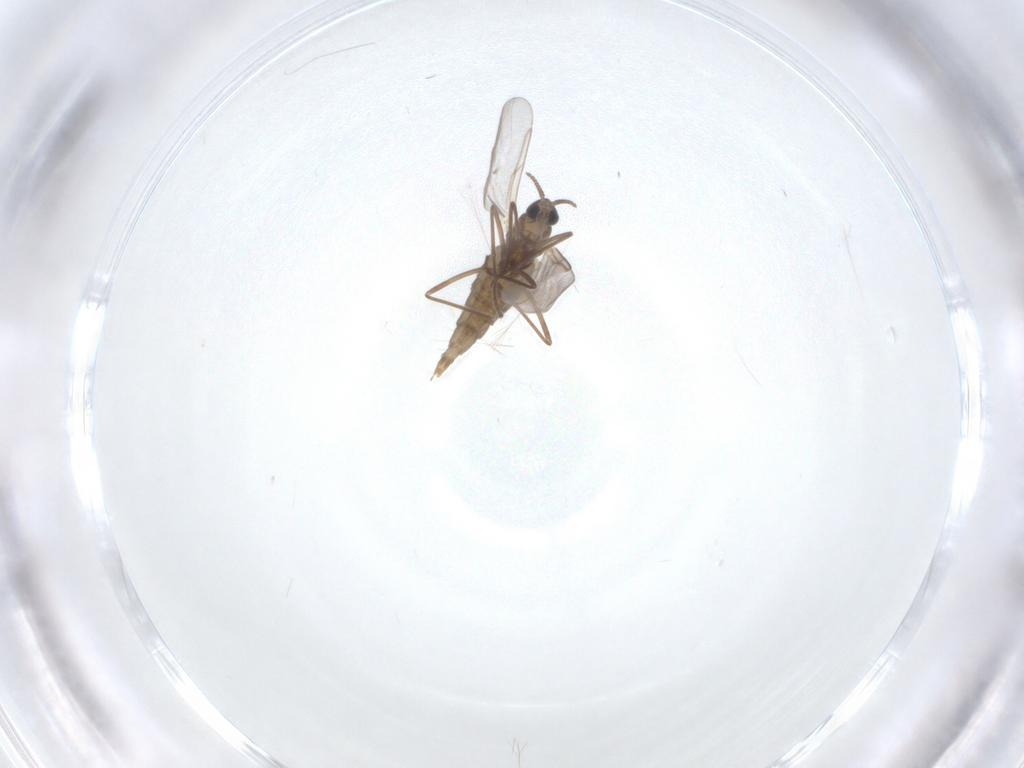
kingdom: Animalia
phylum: Arthropoda
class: Insecta
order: Diptera
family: Cecidomyiidae
